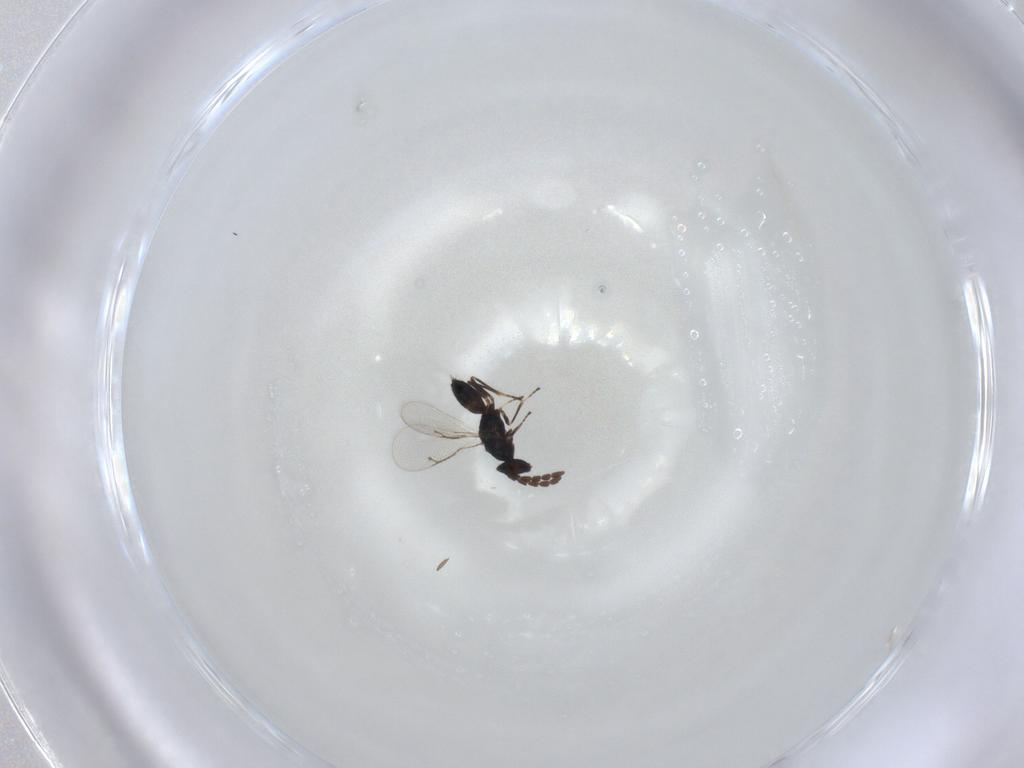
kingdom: Animalia
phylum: Arthropoda
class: Insecta
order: Hymenoptera
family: Eulophidae
